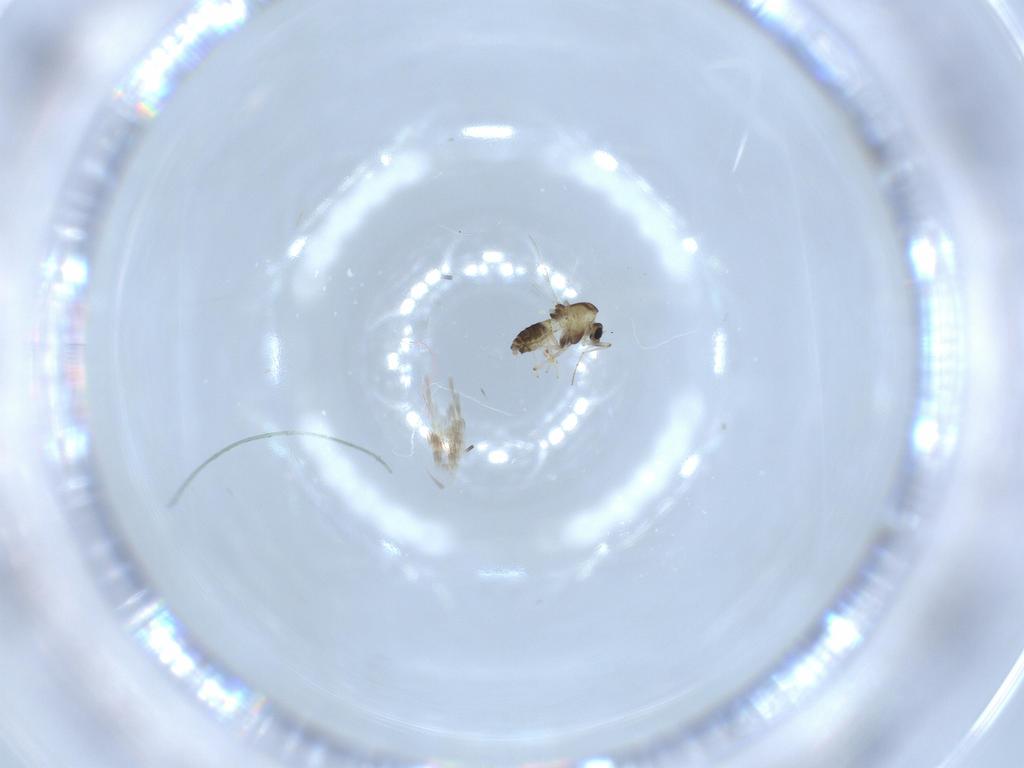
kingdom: Animalia
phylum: Arthropoda
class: Insecta
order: Diptera
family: Chironomidae
